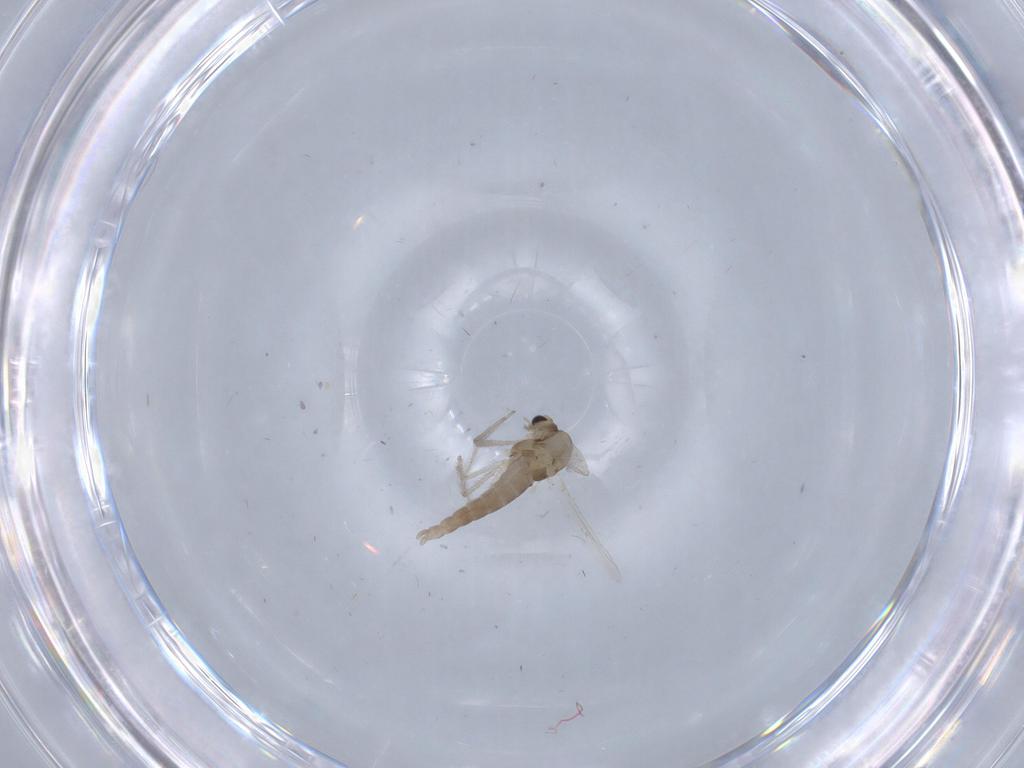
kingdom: Animalia
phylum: Arthropoda
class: Insecta
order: Diptera
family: Chironomidae
